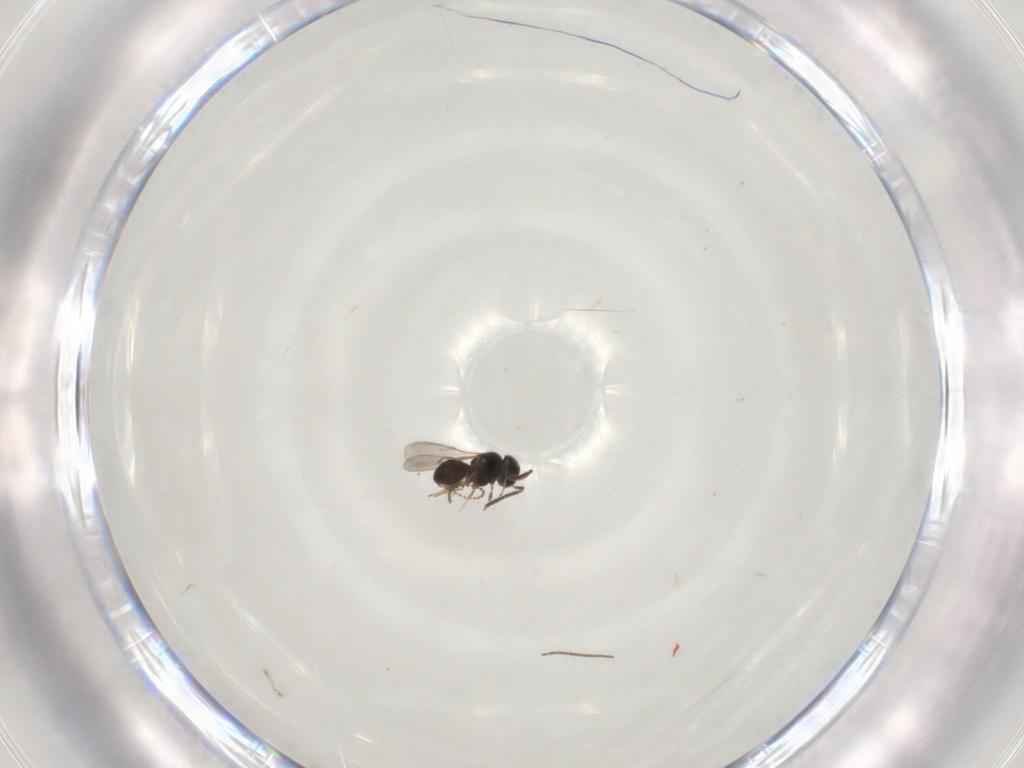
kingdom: Animalia
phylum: Arthropoda
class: Insecta
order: Hymenoptera
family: Scelionidae
